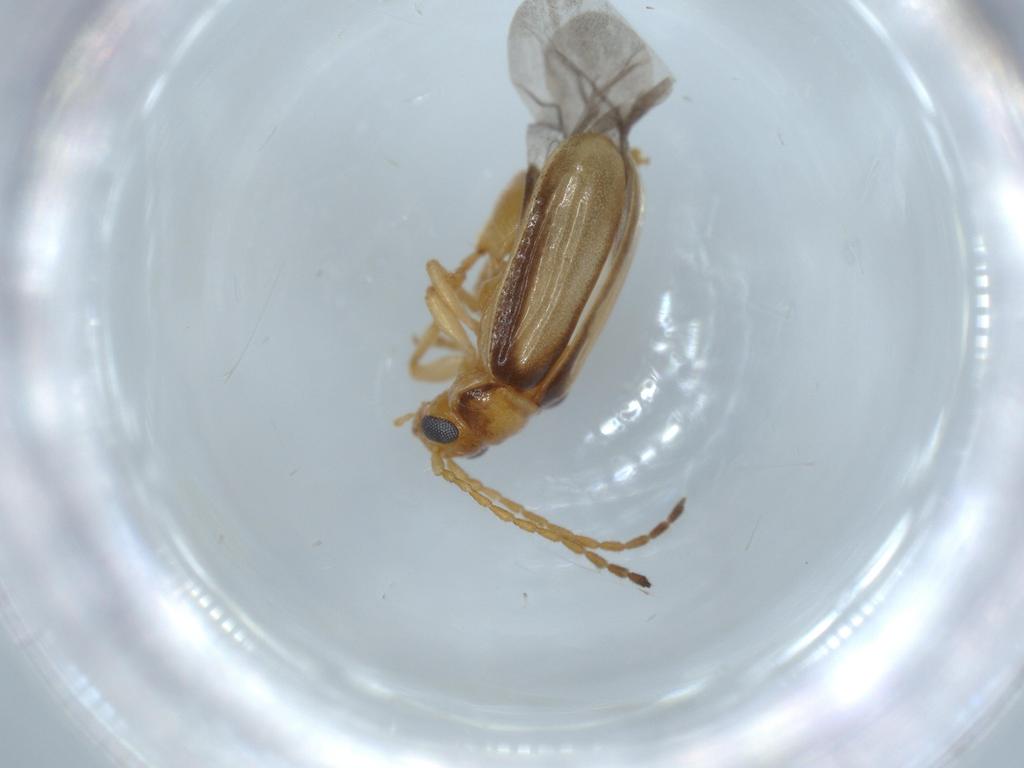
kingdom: Animalia
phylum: Arthropoda
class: Insecta
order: Coleoptera
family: Chrysomelidae
